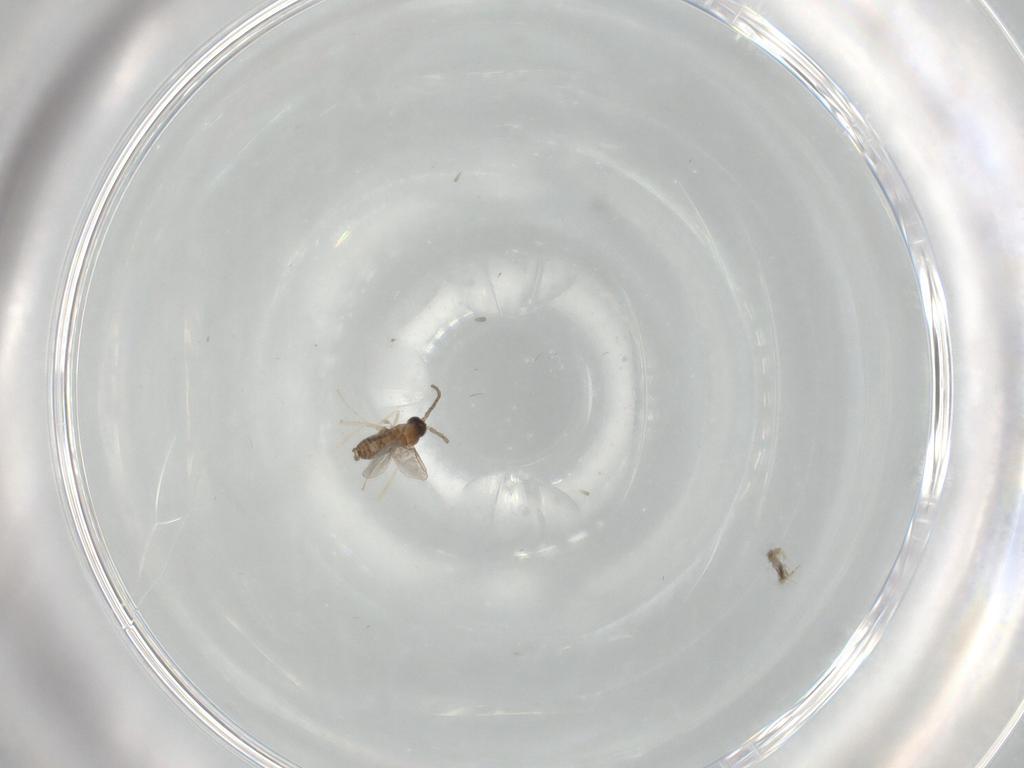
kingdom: Animalia
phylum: Arthropoda
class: Insecta
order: Diptera
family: Cecidomyiidae
